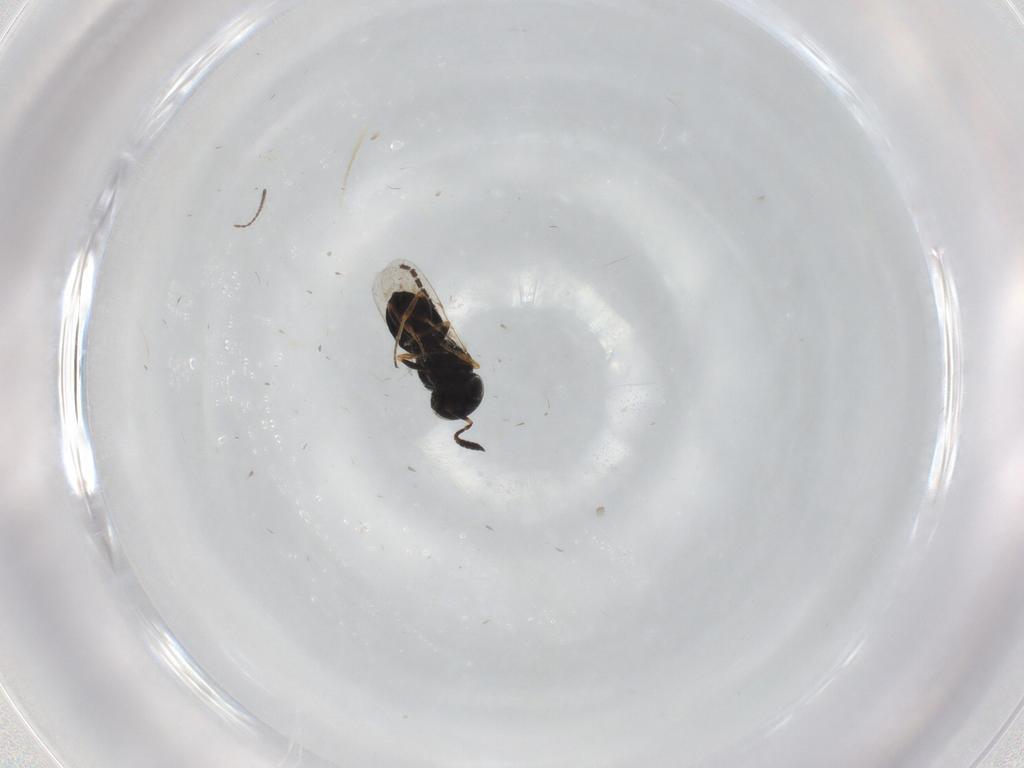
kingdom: Animalia
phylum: Arthropoda
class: Insecta
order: Hymenoptera
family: Scelionidae
